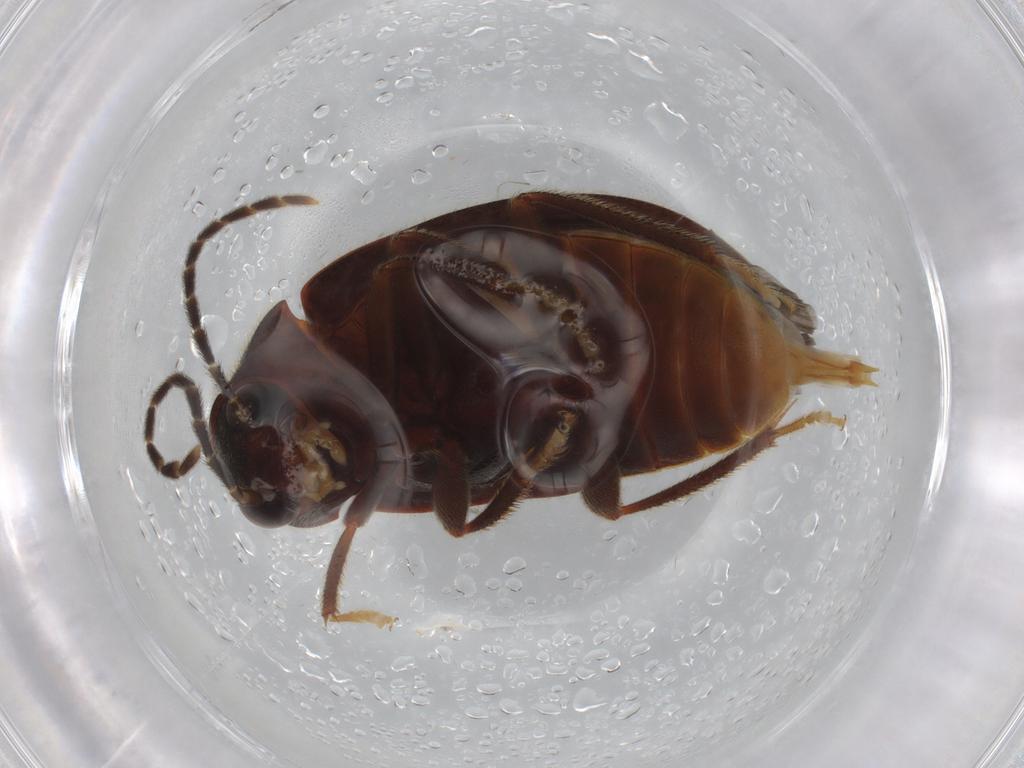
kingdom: Animalia
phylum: Arthropoda
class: Insecta
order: Coleoptera
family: Ptilodactylidae
